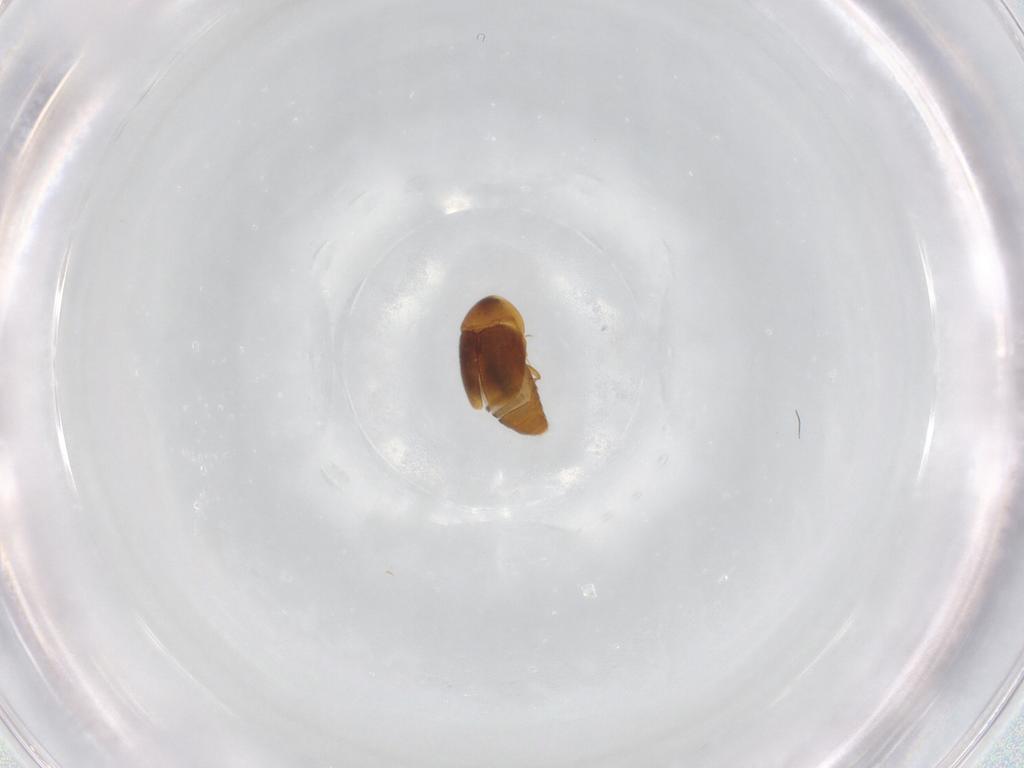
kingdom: Animalia
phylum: Arthropoda
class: Insecta
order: Coleoptera
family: Corylophidae
